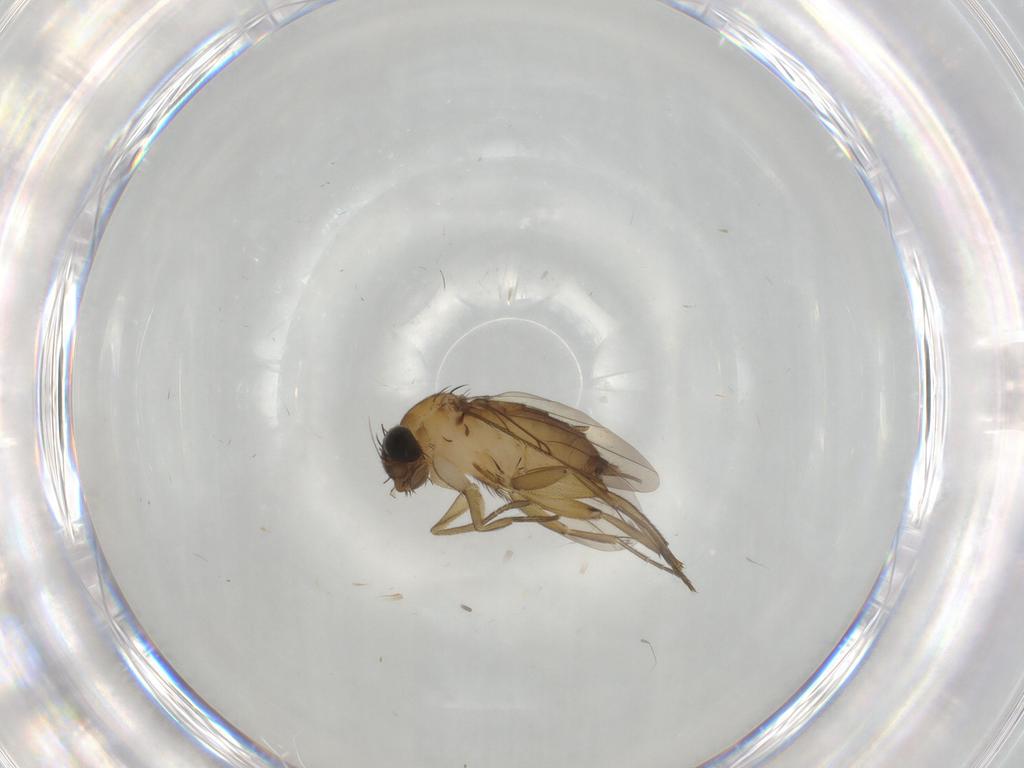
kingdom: Animalia
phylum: Arthropoda
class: Insecta
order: Diptera
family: Phoridae
